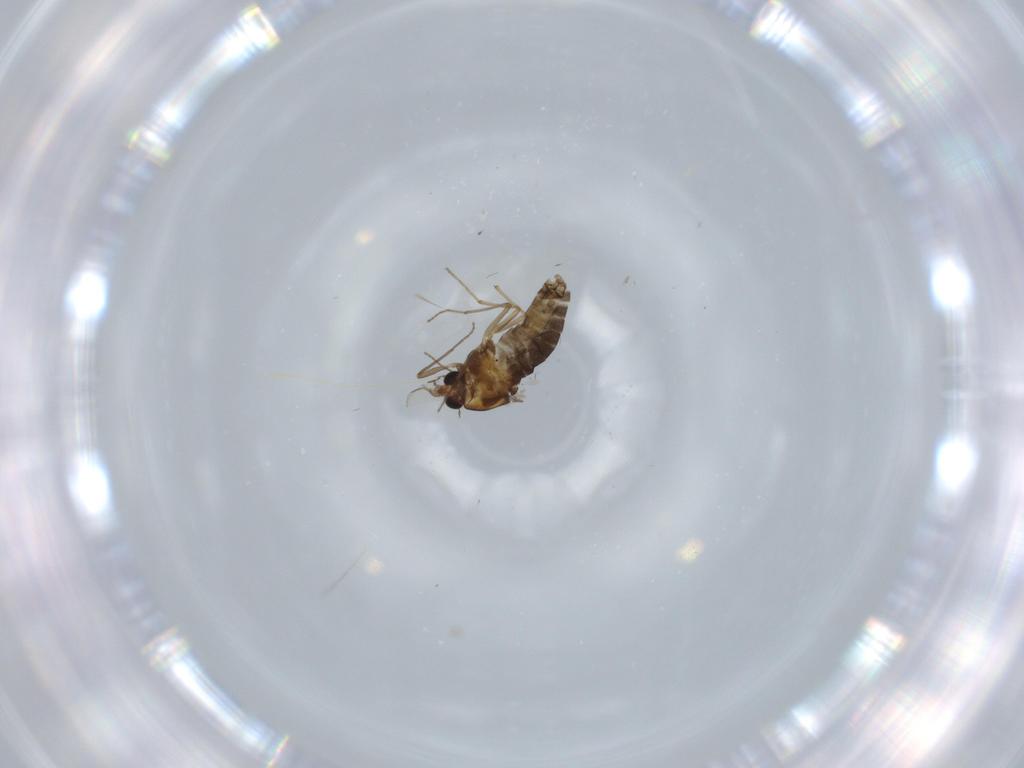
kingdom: Animalia
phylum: Arthropoda
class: Insecta
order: Diptera
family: Chironomidae
